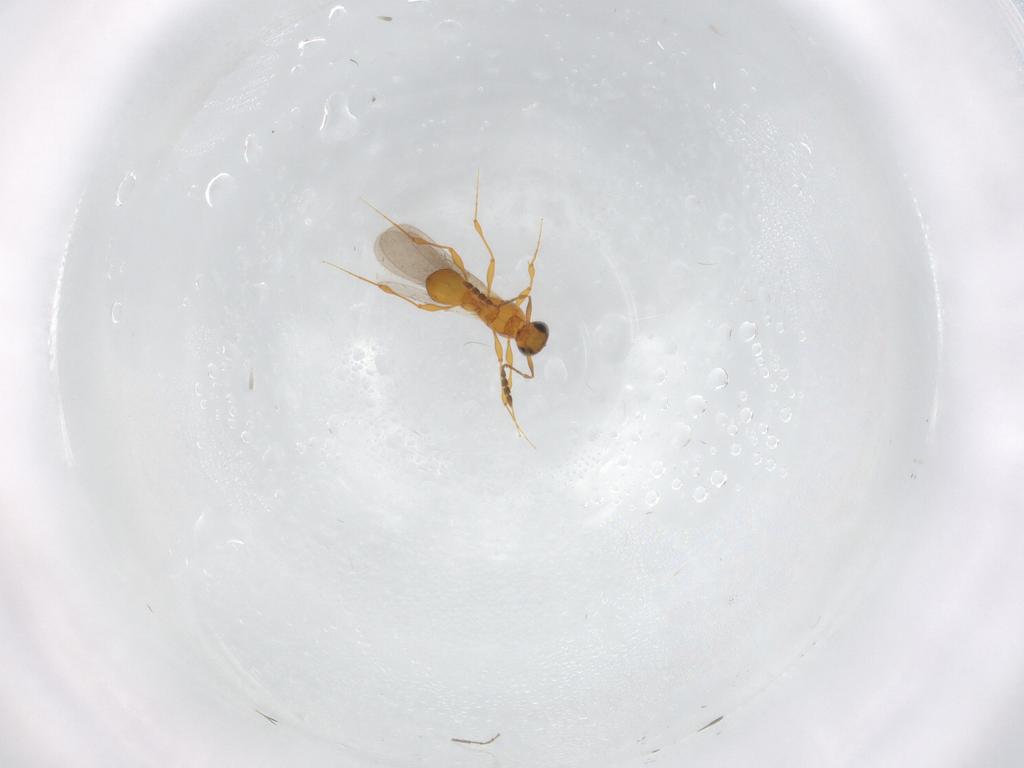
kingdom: Animalia
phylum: Arthropoda
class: Insecta
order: Hymenoptera
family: Platygastridae
